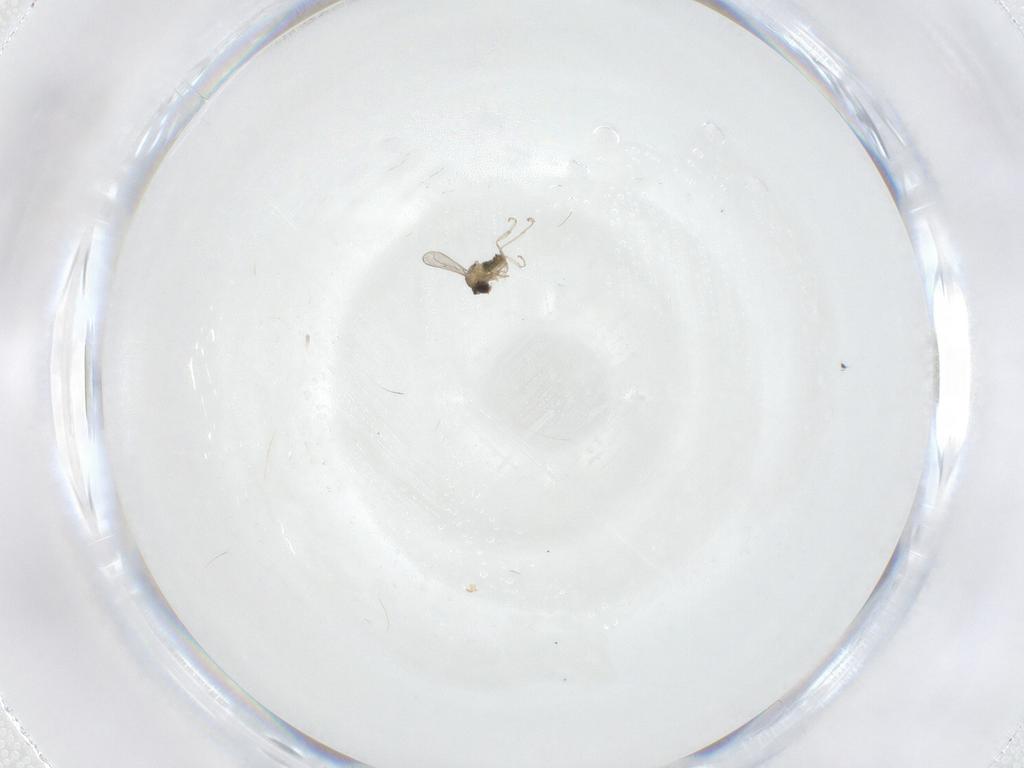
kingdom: Animalia
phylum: Arthropoda
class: Insecta
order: Diptera
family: Cecidomyiidae
